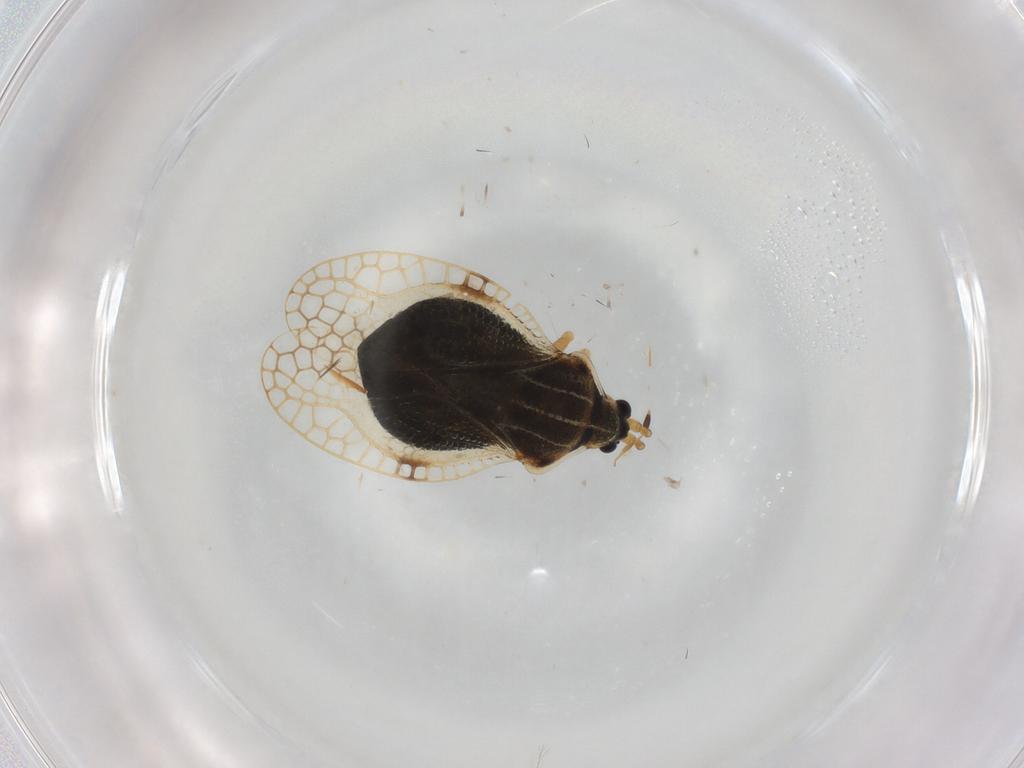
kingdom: Animalia
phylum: Arthropoda
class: Insecta
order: Hemiptera
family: Tingidae
